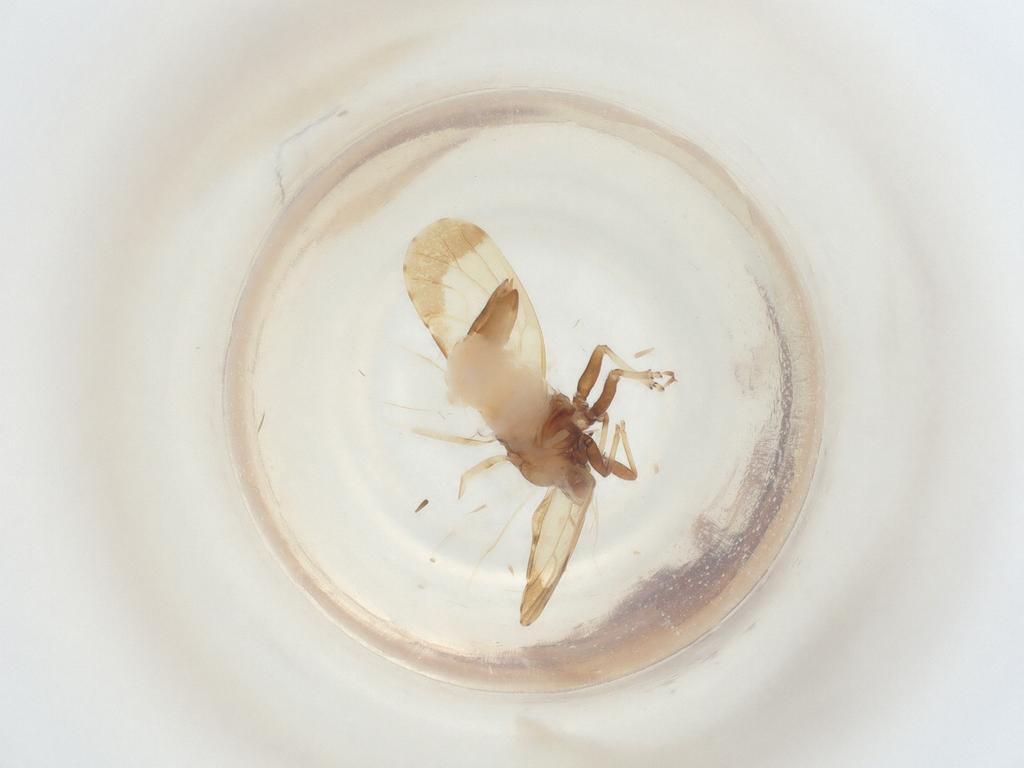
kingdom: Animalia
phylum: Arthropoda
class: Insecta
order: Hemiptera
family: Psyllidae
